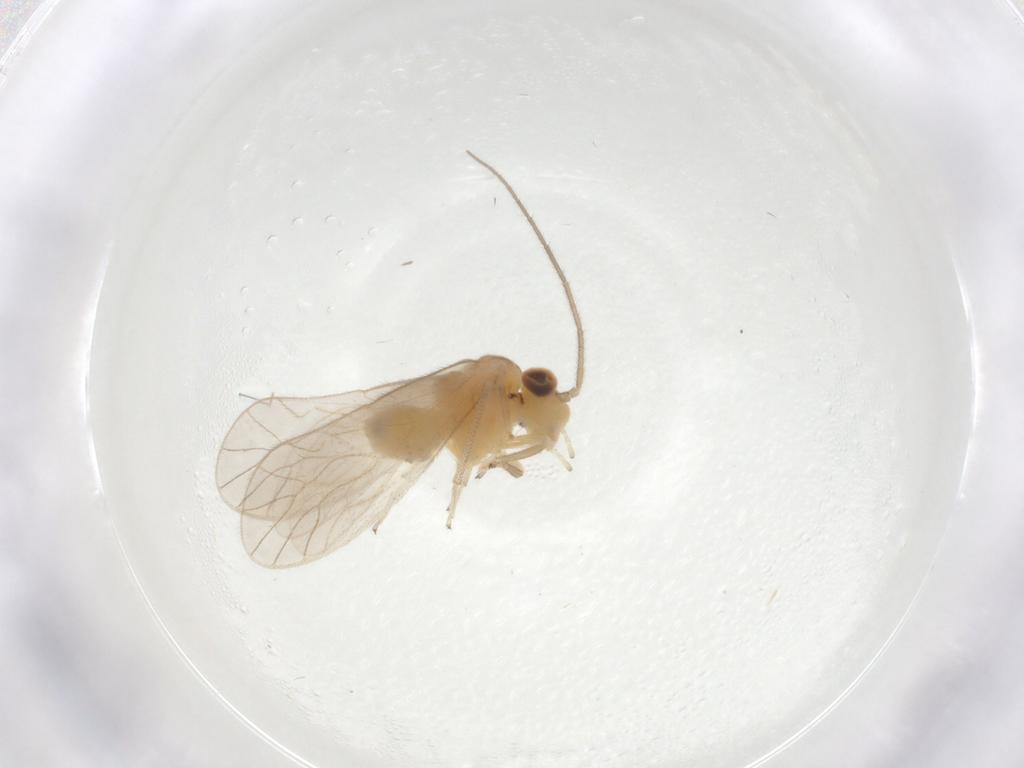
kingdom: Animalia
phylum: Arthropoda
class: Insecta
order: Psocodea
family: Caeciliusidae
